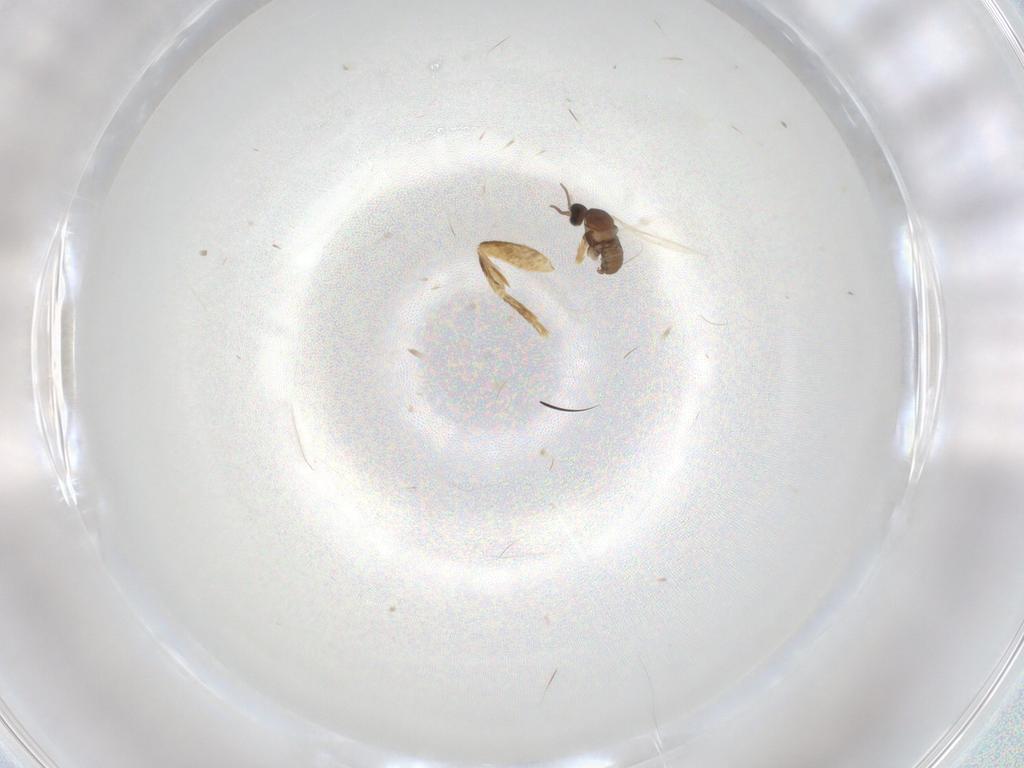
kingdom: Animalia
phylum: Arthropoda
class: Insecta
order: Diptera
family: Cecidomyiidae
